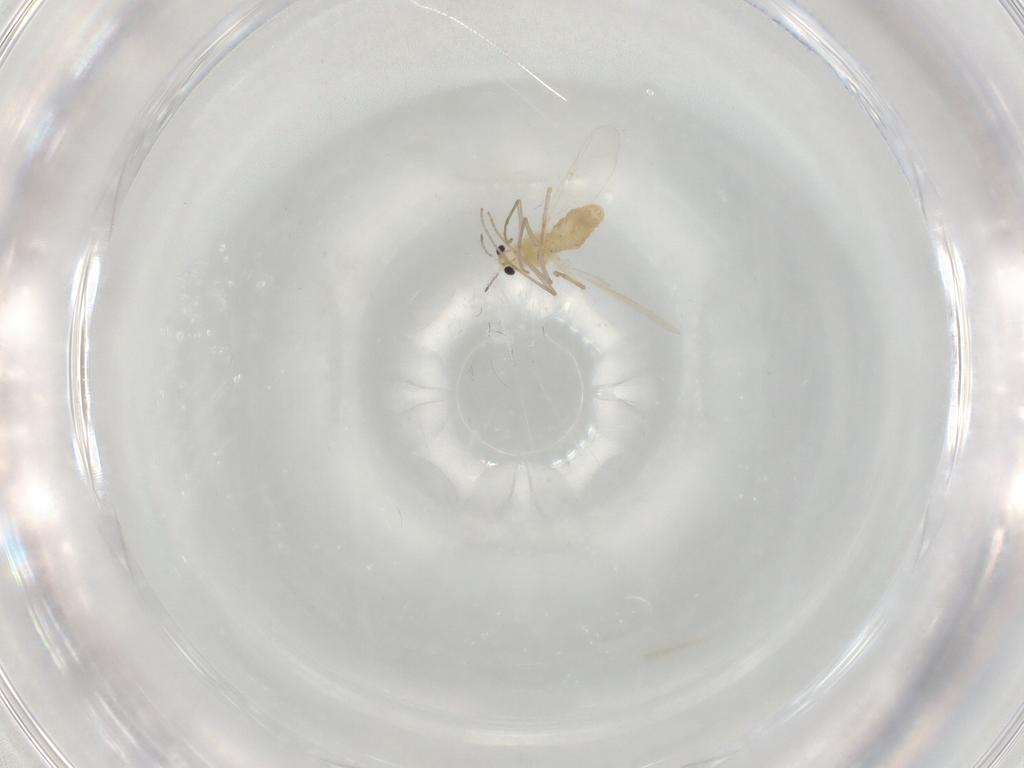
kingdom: Animalia
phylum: Arthropoda
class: Insecta
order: Diptera
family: Chironomidae
